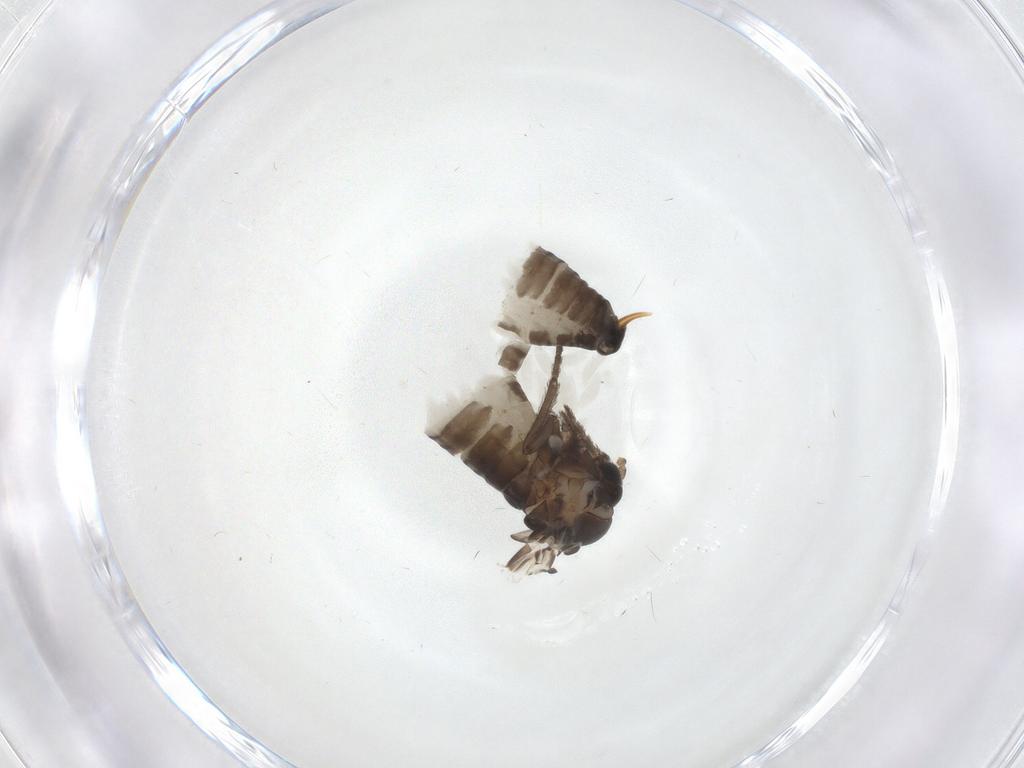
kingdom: Animalia
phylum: Arthropoda
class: Insecta
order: Diptera
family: Psychodidae
